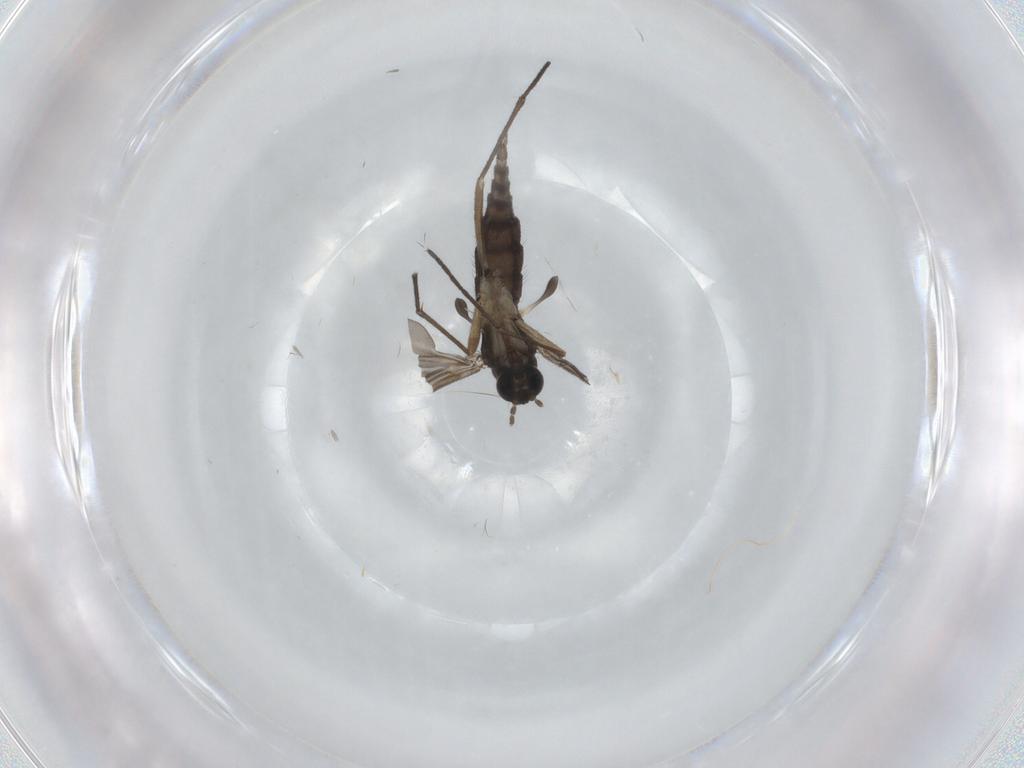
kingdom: Animalia
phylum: Arthropoda
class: Insecta
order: Diptera
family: Sciaridae
